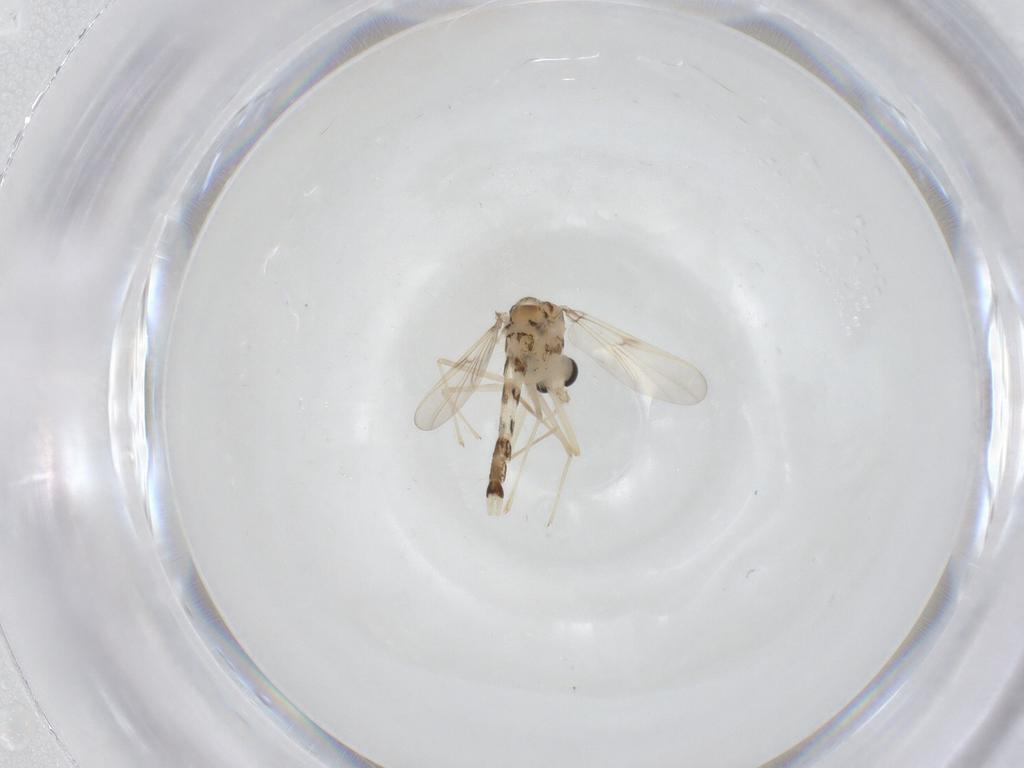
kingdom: Animalia
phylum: Arthropoda
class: Insecta
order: Diptera
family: Chironomidae
